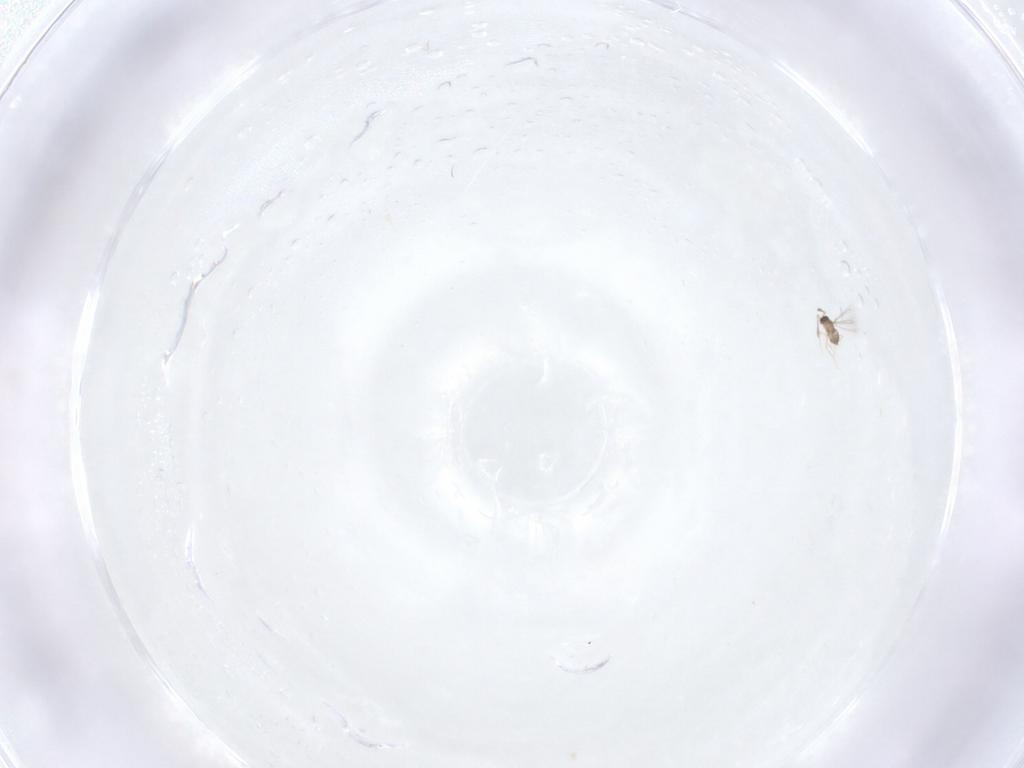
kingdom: Animalia
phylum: Arthropoda
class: Insecta
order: Hymenoptera
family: Mymaridae
